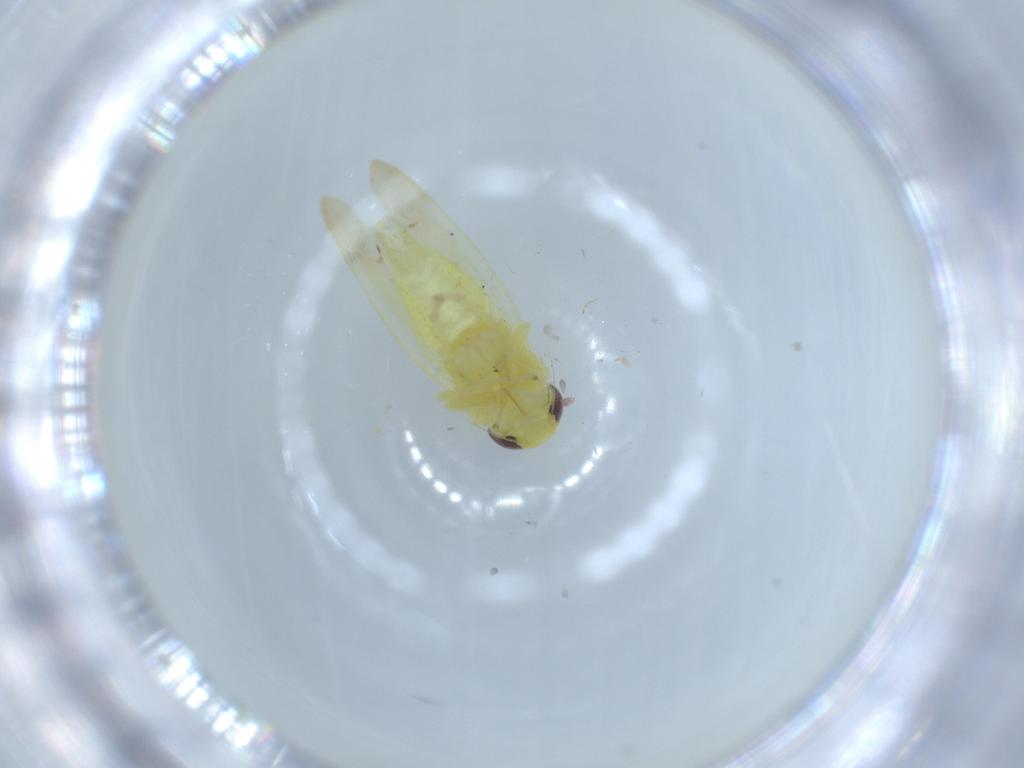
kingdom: Animalia
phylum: Arthropoda
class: Insecta
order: Hemiptera
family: Cicadellidae
